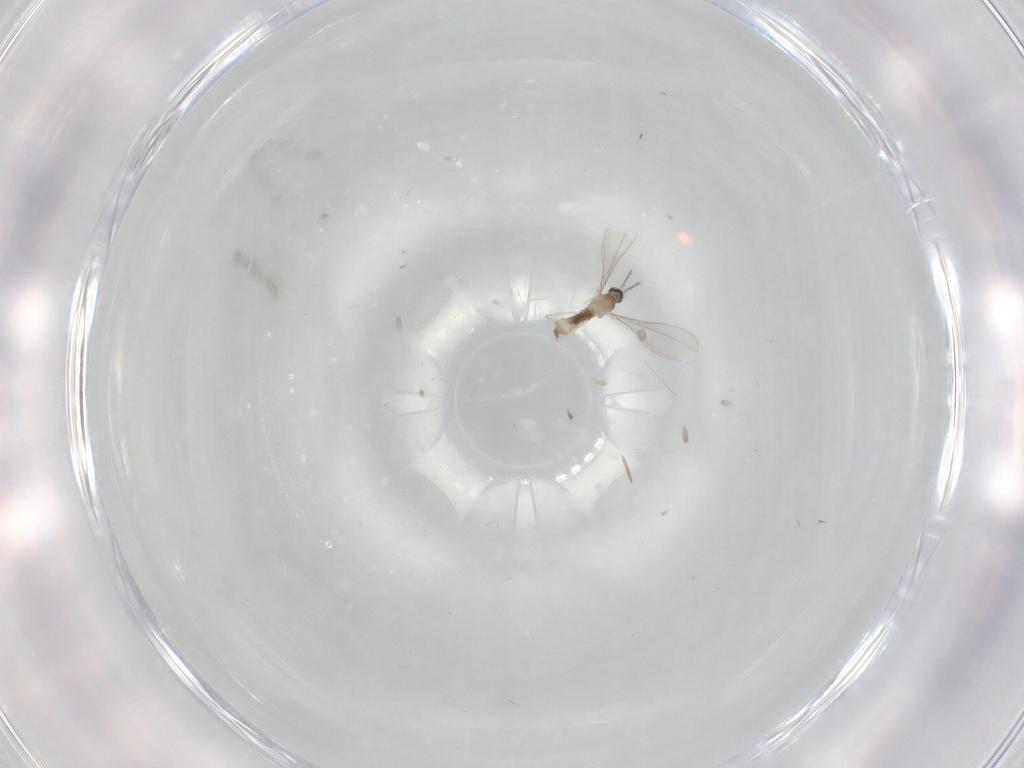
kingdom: Animalia
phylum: Arthropoda
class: Insecta
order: Diptera
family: Cecidomyiidae
